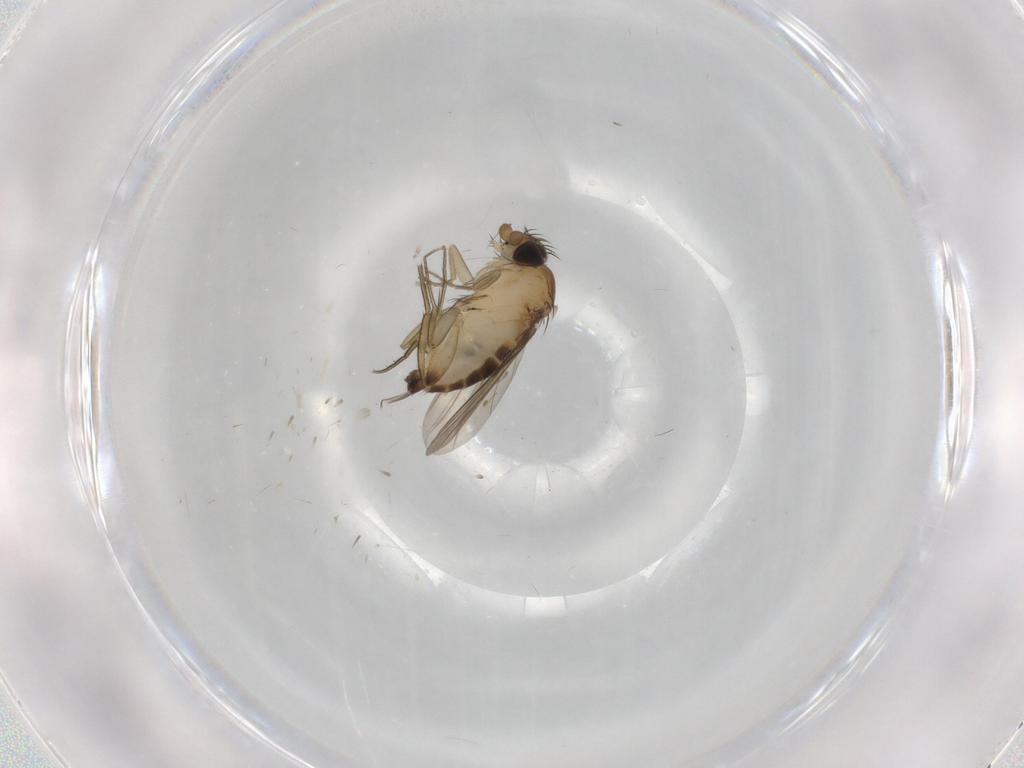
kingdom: Animalia
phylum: Arthropoda
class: Insecta
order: Diptera
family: Phoridae
